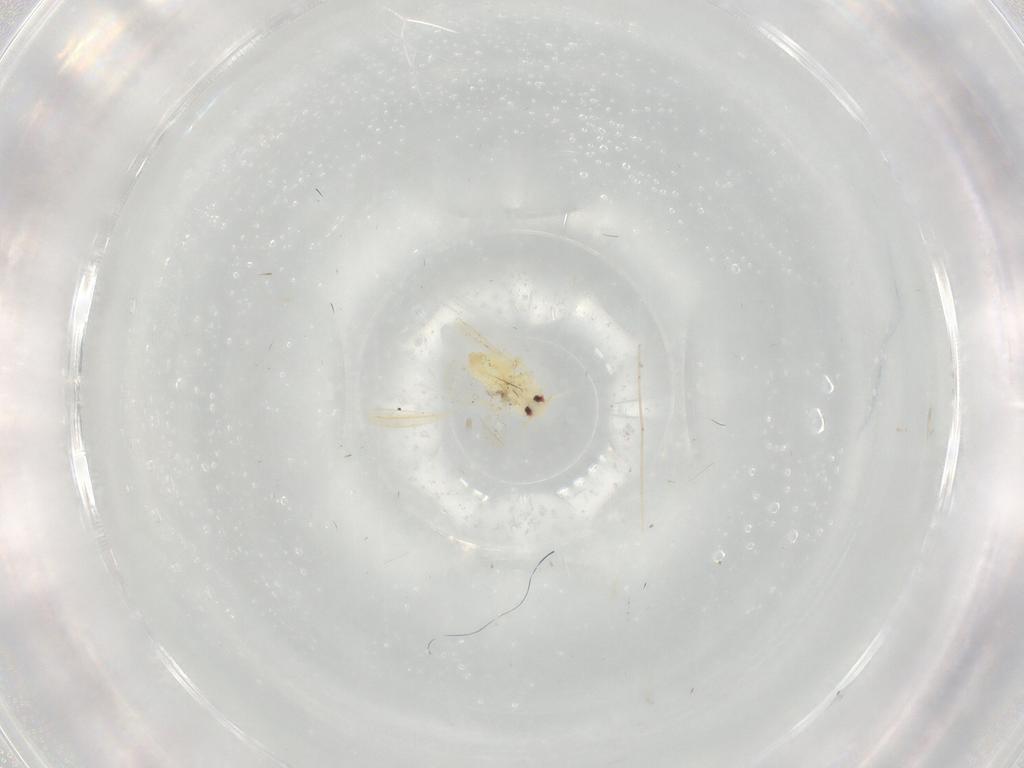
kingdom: Animalia
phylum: Arthropoda
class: Insecta
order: Hemiptera
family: Aleyrodidae
